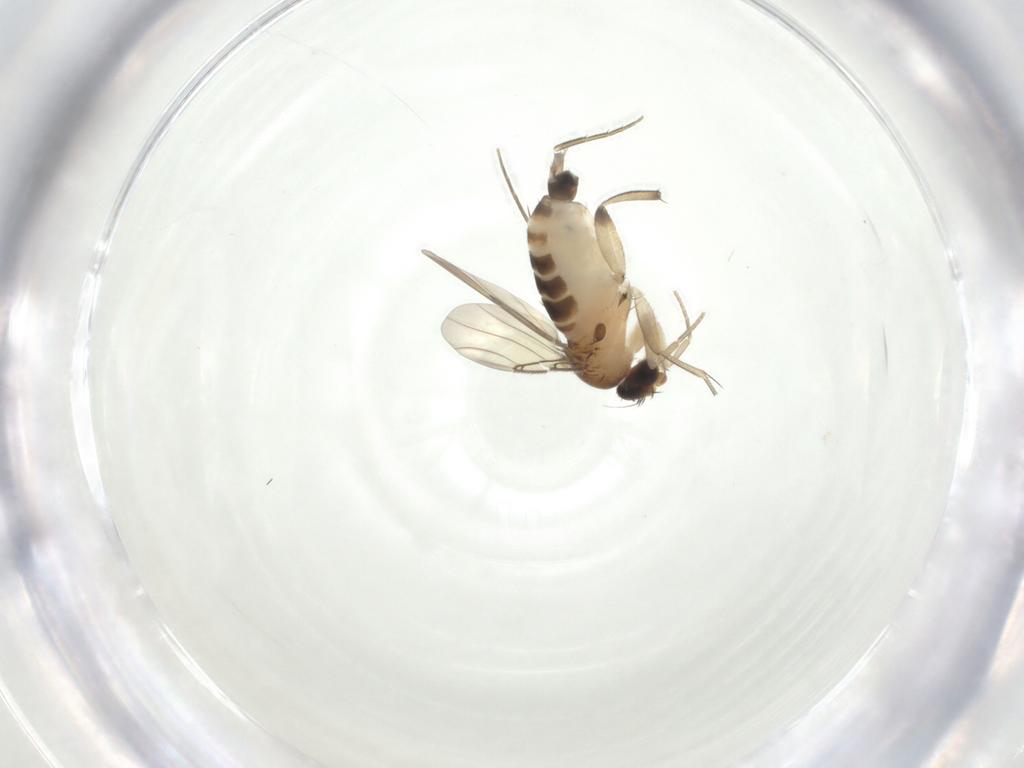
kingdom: Animalia
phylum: Arthropoda
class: Insecta
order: Diptera
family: Phoridae
